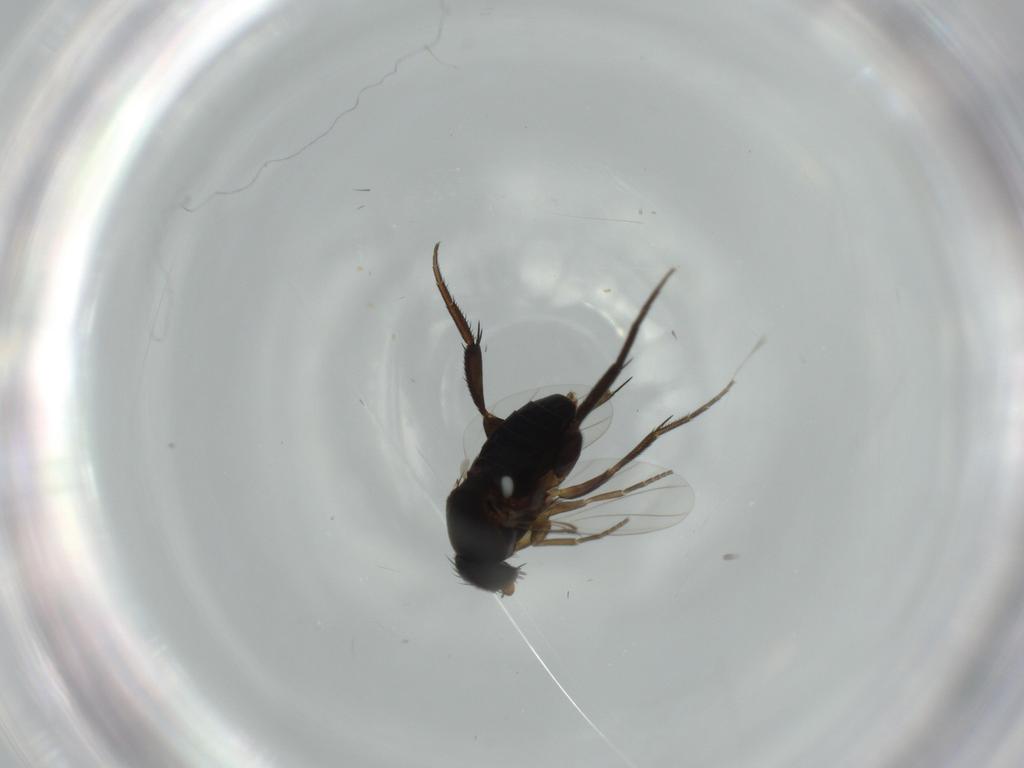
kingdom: Animalia
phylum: Arthropoda
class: Insecta
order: Diptera
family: Phoridae
